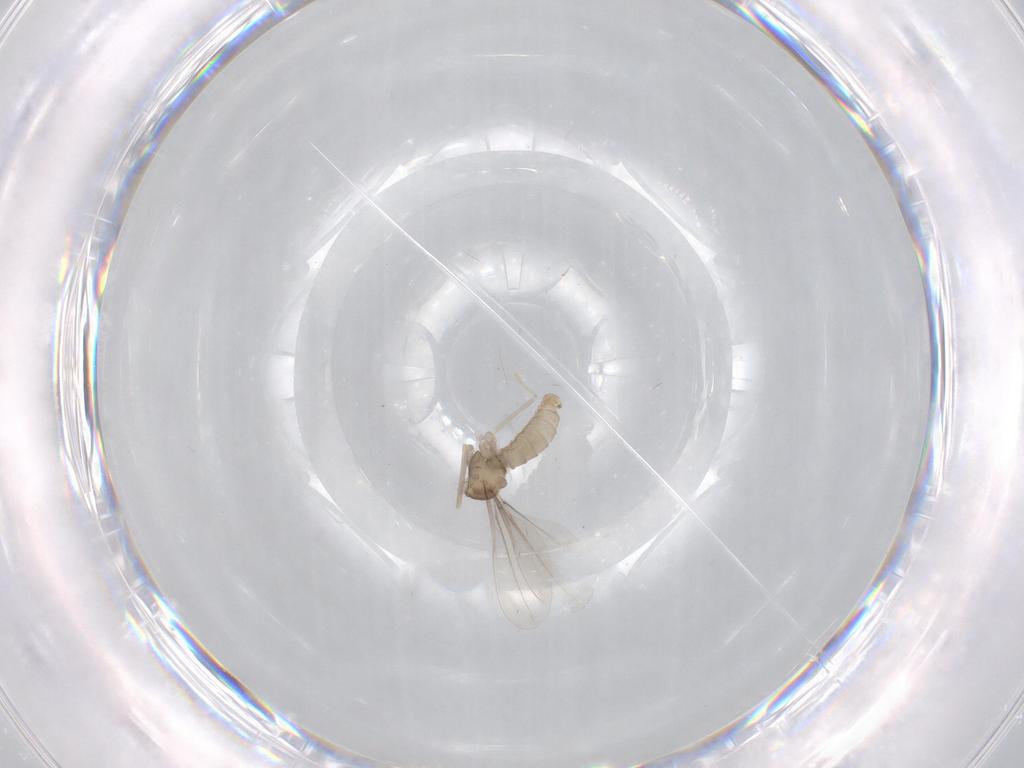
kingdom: Animalia
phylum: Arthropoda
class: Insecta
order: Diptera
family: Cecidomyiidae
